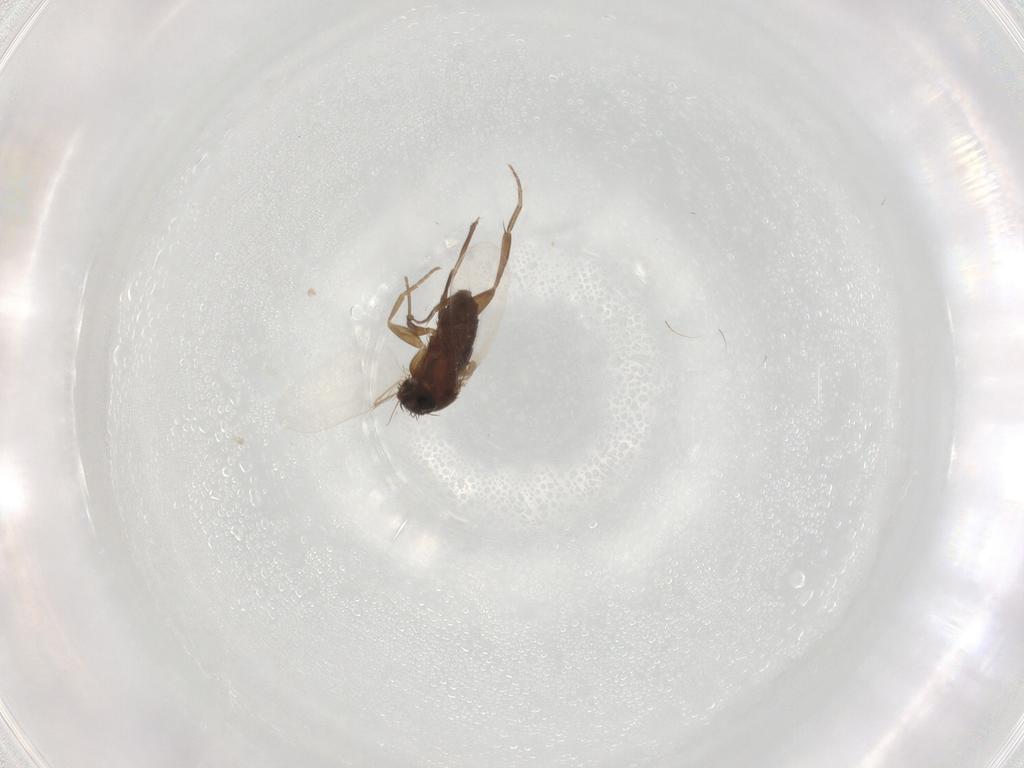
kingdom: Animalia
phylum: Arthropoda
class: Insecta
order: Diptera
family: Phoridae
